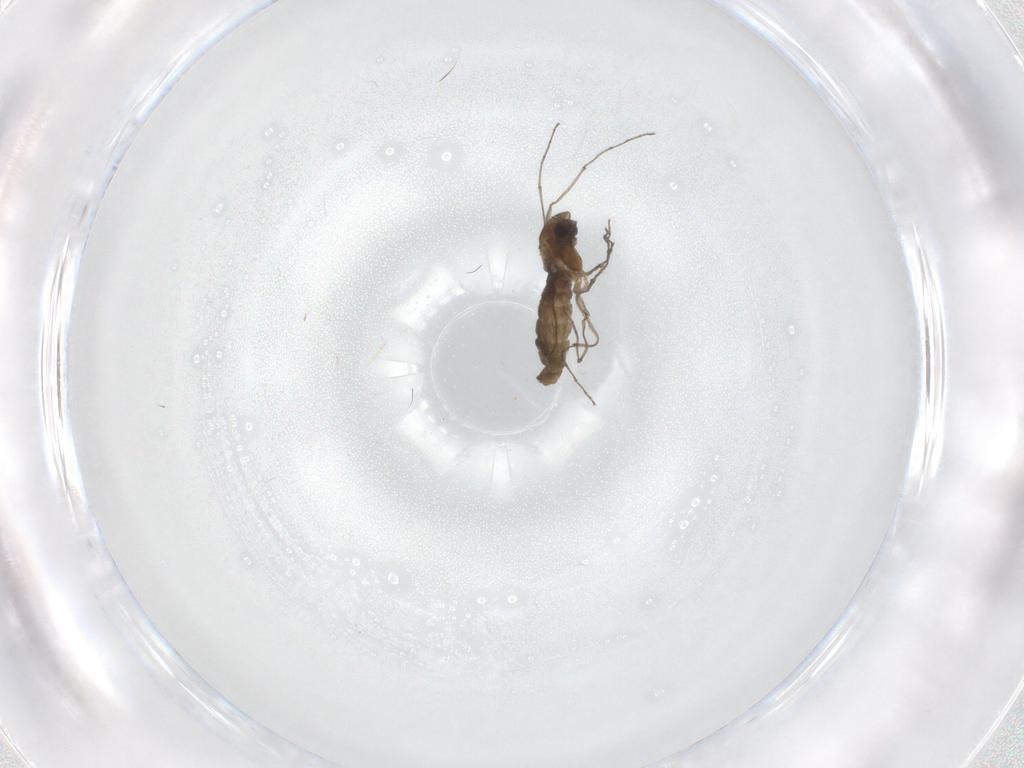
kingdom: Animalia
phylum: Arthropoda
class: Insecta
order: Diptera
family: Chironomidae
